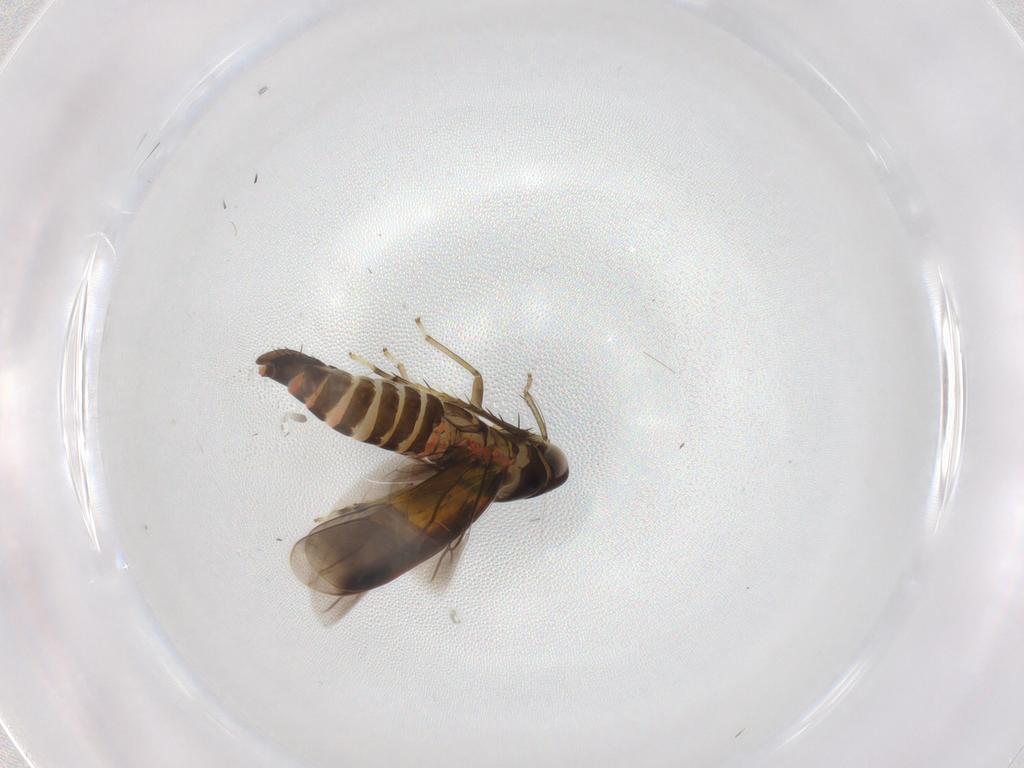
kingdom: Animalia
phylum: Arthropoda
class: Insecta
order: Hemiptera
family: Cicadellidae
